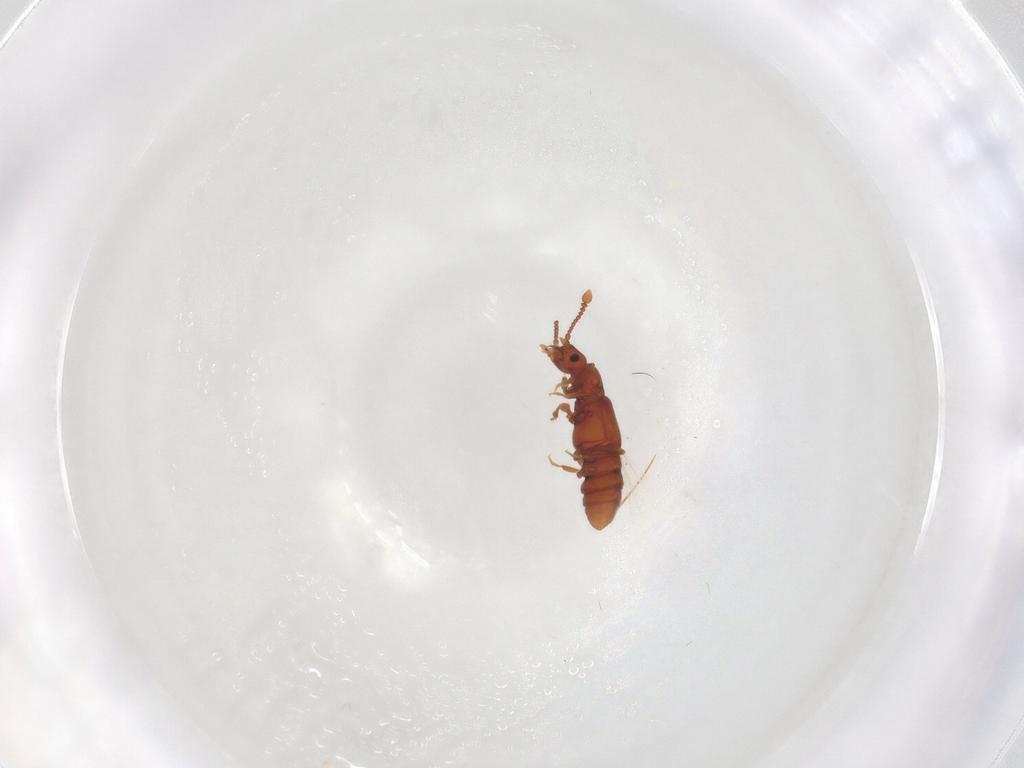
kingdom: Animalia
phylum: Arthropoda
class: Insecta
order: Coleoptera
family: Staphylinidae
